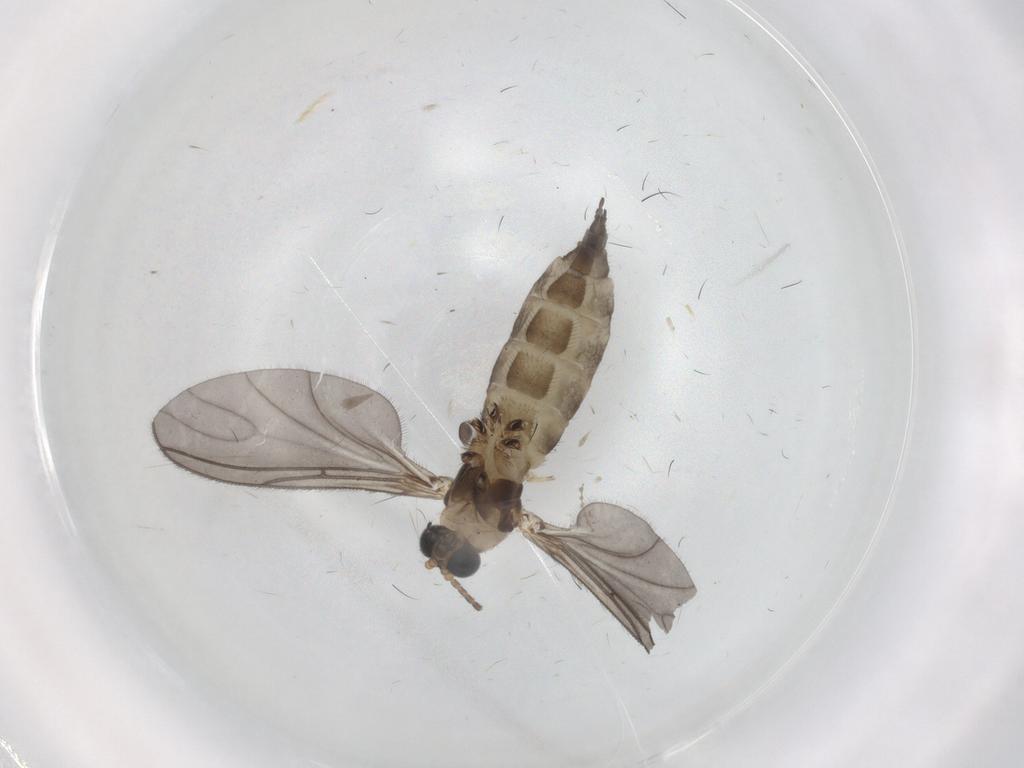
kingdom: Animalia
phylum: Arthropoda
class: Insecta
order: Diptera
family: Sciaridae
